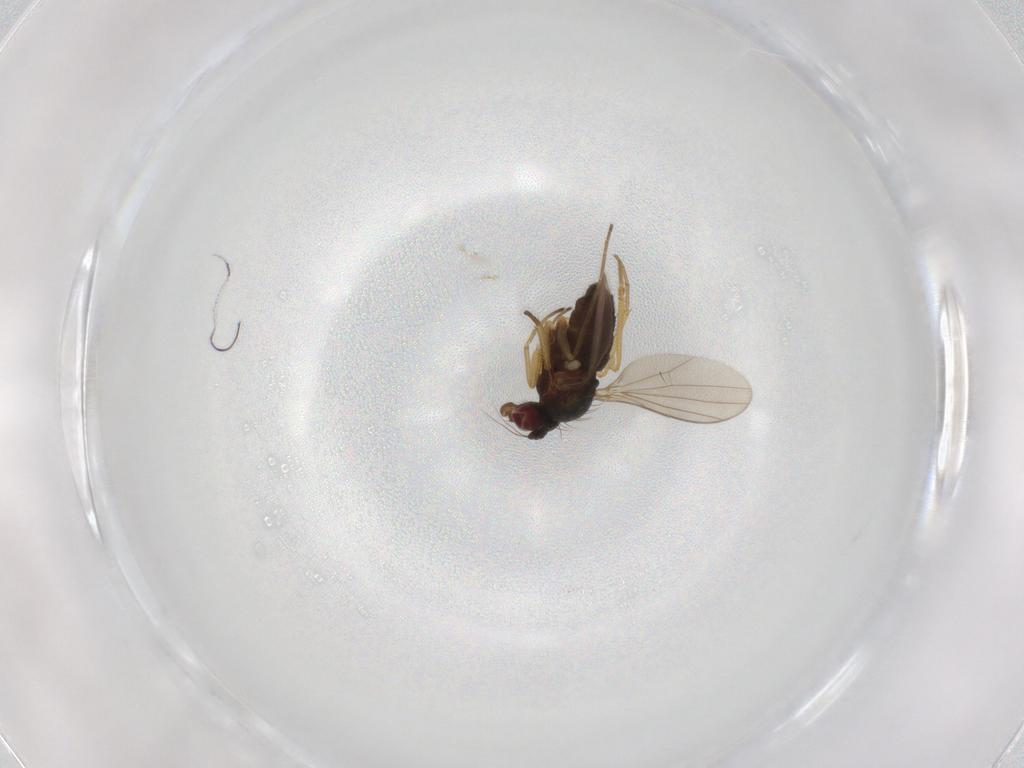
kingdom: Animalia
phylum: Arthropoda
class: Insecta
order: Diptera
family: Dolichopodidae
